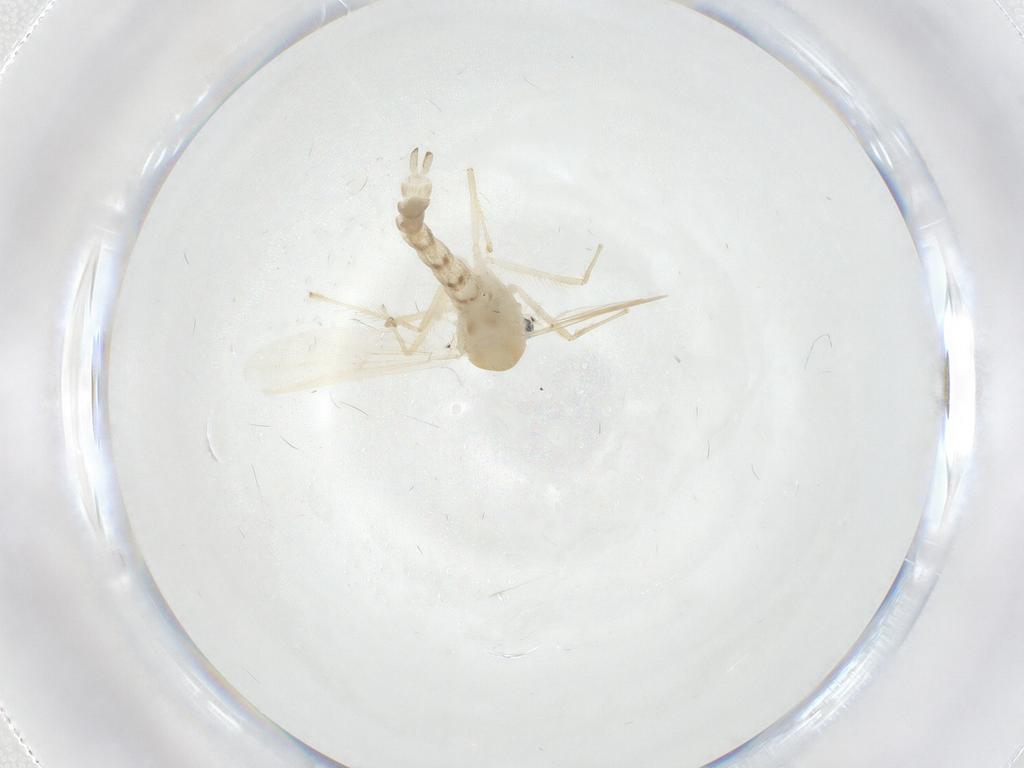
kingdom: Animalia
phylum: Arthropoda
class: Insecta
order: Diptera
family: Chironomidae
